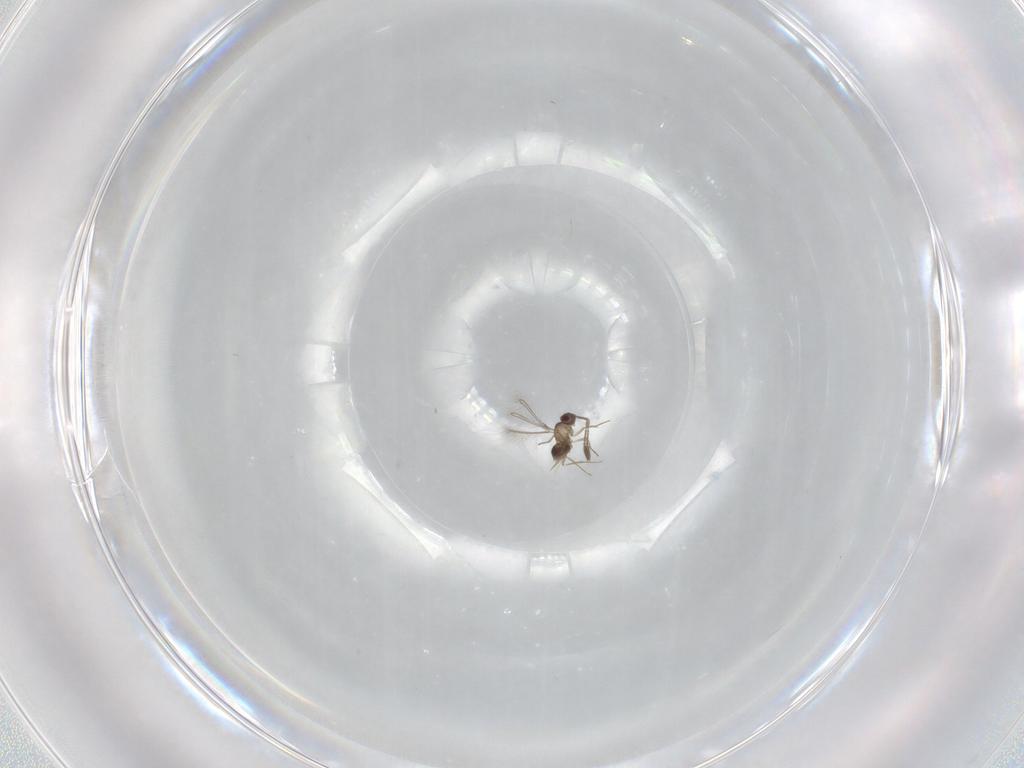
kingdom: Animalia
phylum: Arthropoda
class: Insecta
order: Hymenoptera
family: Mymaridae
